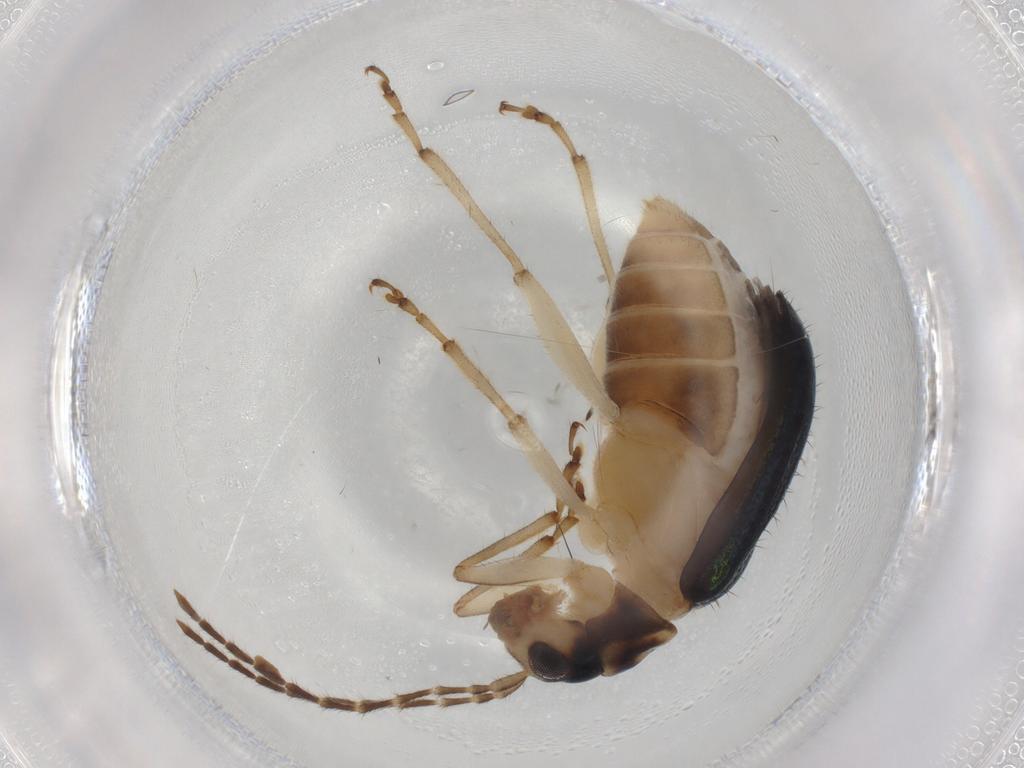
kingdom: Animalia
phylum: Arthropoda
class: Insecta
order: Coleoptera
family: Chrysomelidae
